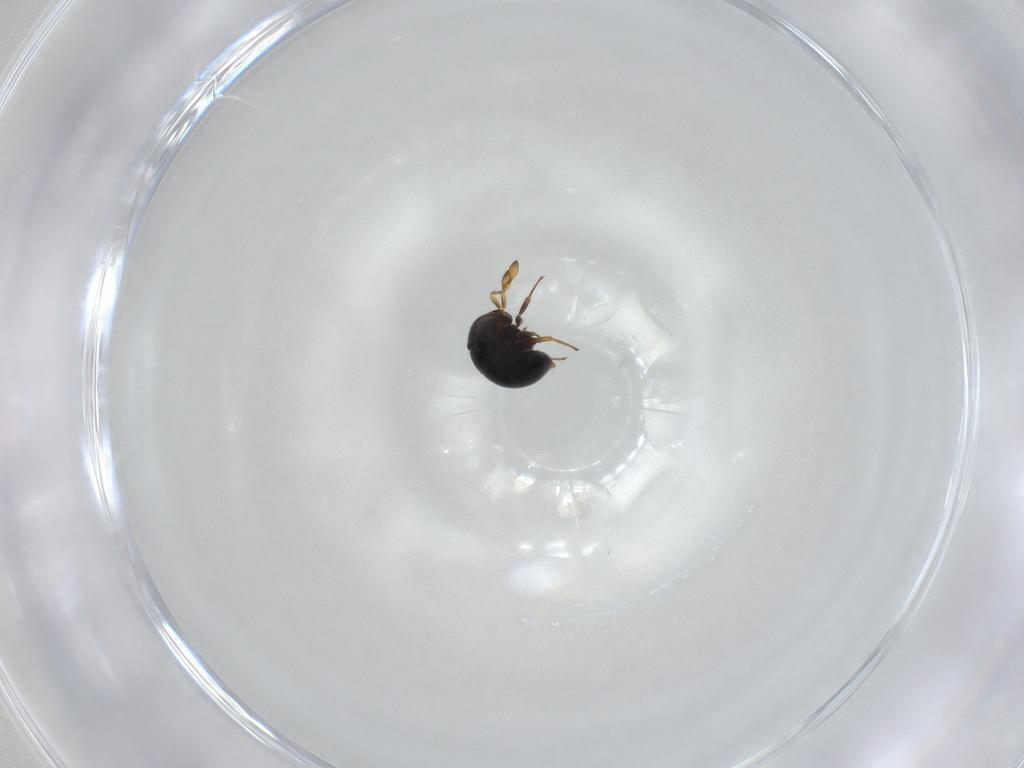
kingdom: Animalia
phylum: Arthropoda
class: Insecta
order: Hymenoptera
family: Scelionidae
